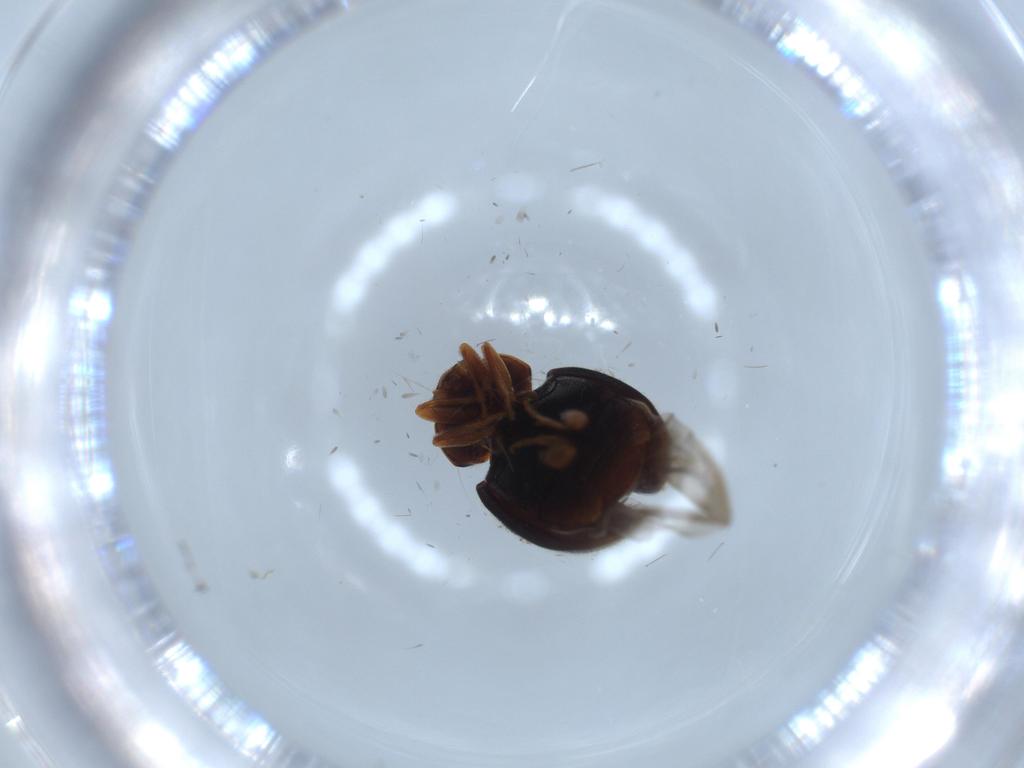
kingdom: Animalia
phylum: Arthropoda
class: Insecta
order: Coleoptera
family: Coccinellidae
